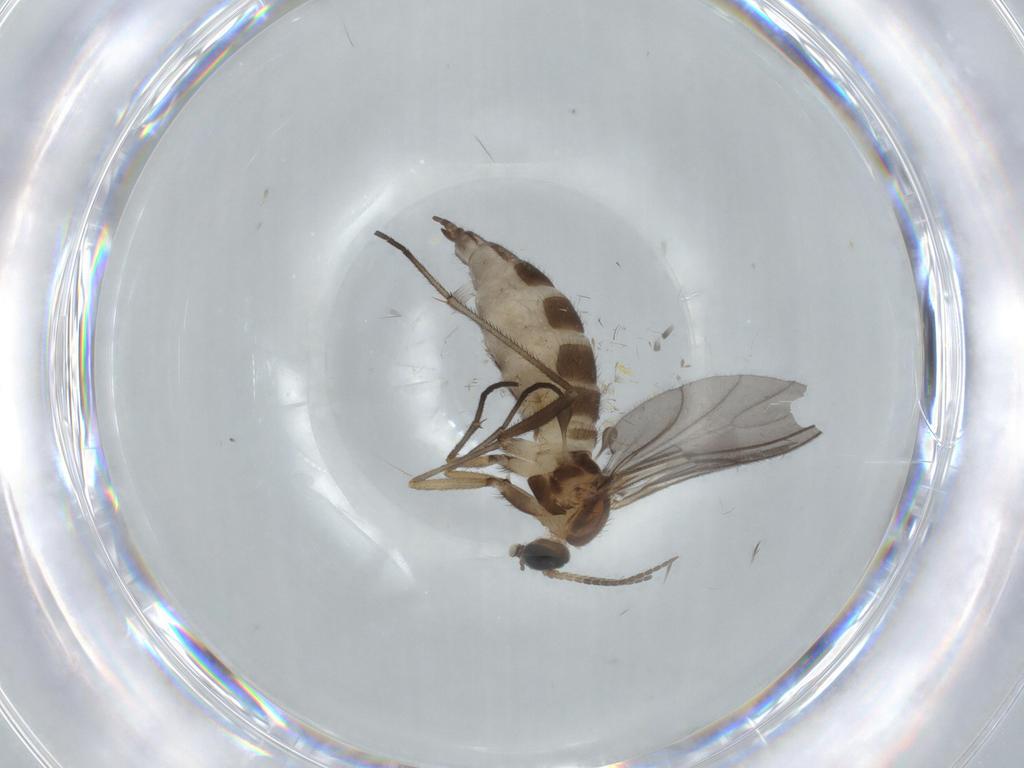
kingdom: Animalia
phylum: Arthropoda
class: Insecta
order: Diptera
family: Sciaridae
